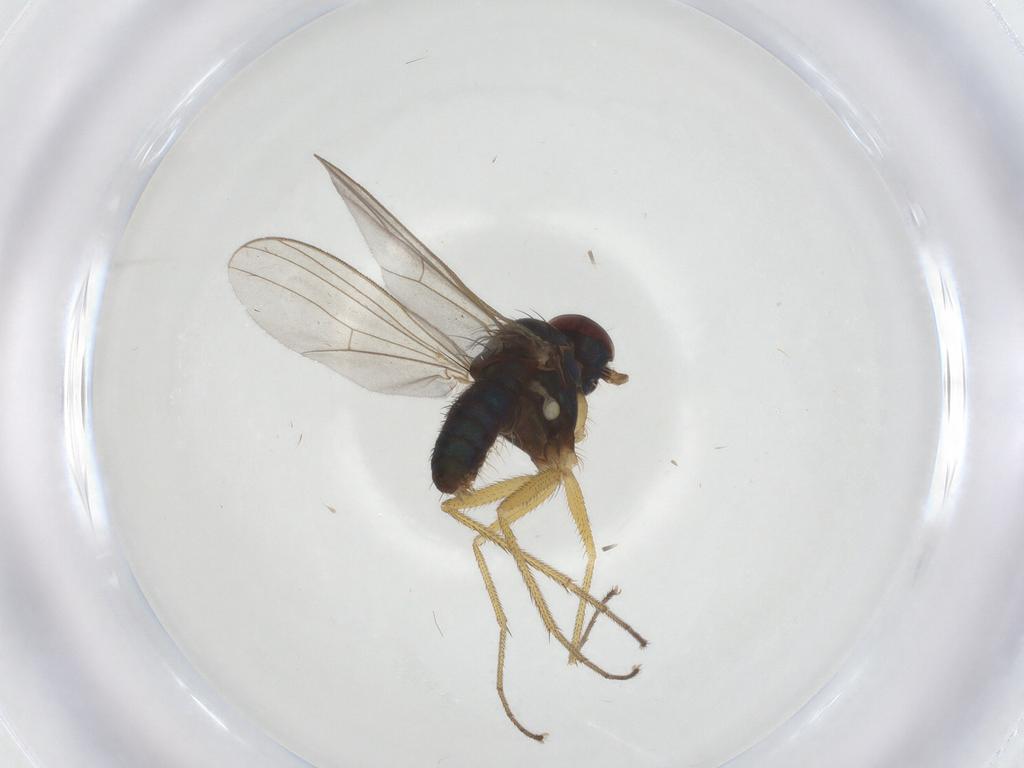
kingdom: Animalia
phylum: Arthropoda
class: Insecta
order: Diptera
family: Dolichopodidae
